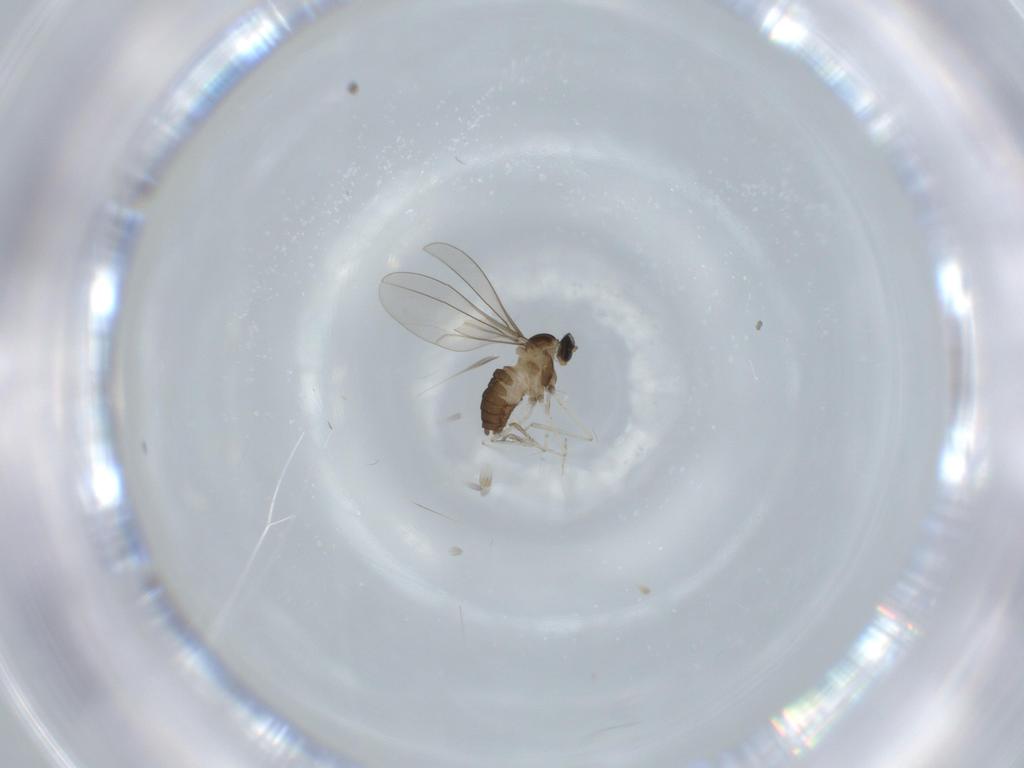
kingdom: Animalia
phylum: Arthropoda
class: Insecta
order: Diptera
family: Cecidomyiidae
